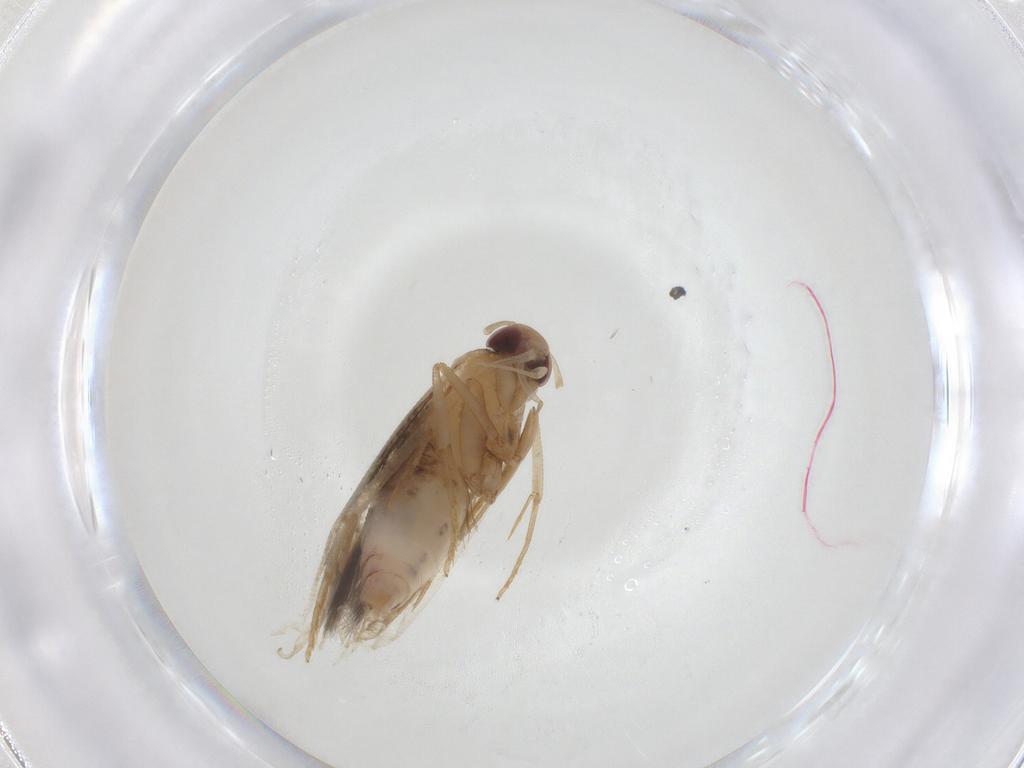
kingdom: Animalia
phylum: Arthropoda
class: Insecta
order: Lepidoptera
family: Momphidae
